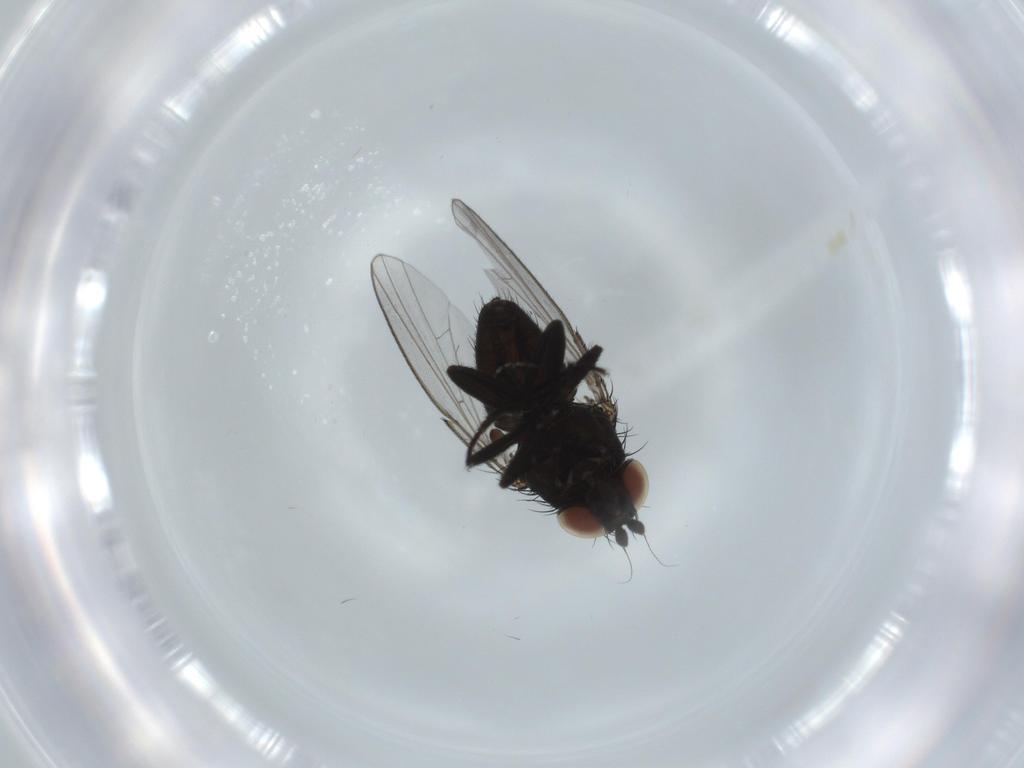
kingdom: Animalia
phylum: Arthropoda
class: Insecta
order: Diptera
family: Milichiidae
